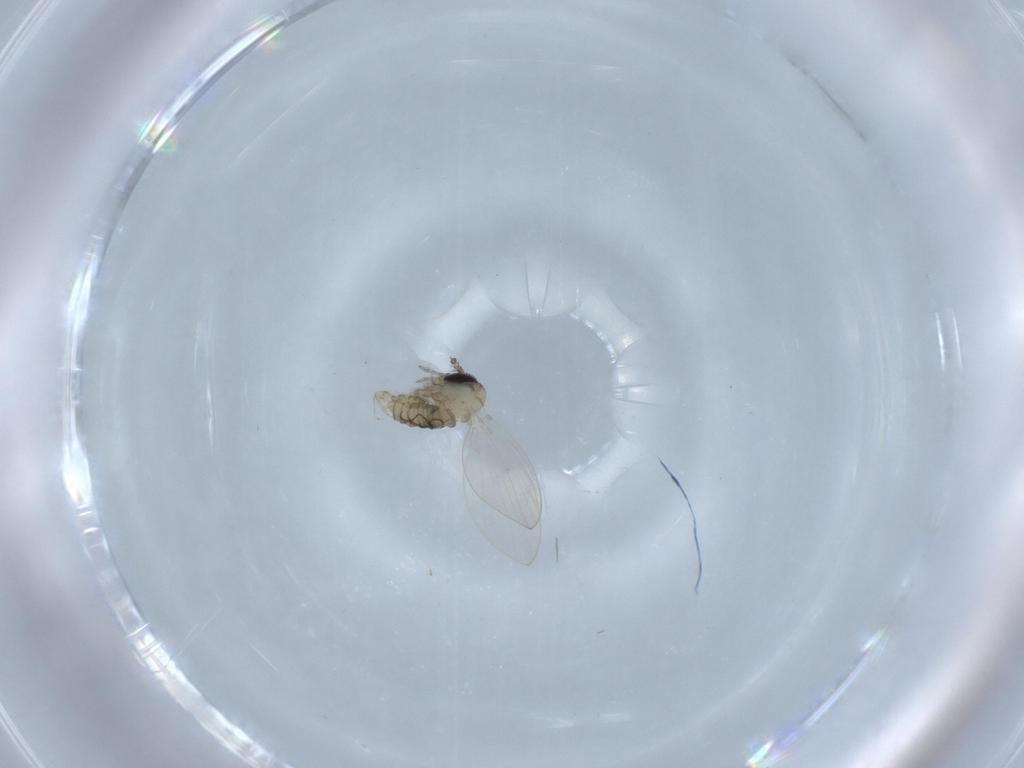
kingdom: Animalia
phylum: Arthropoda
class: Insecta
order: Diptera
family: Psychodidae
